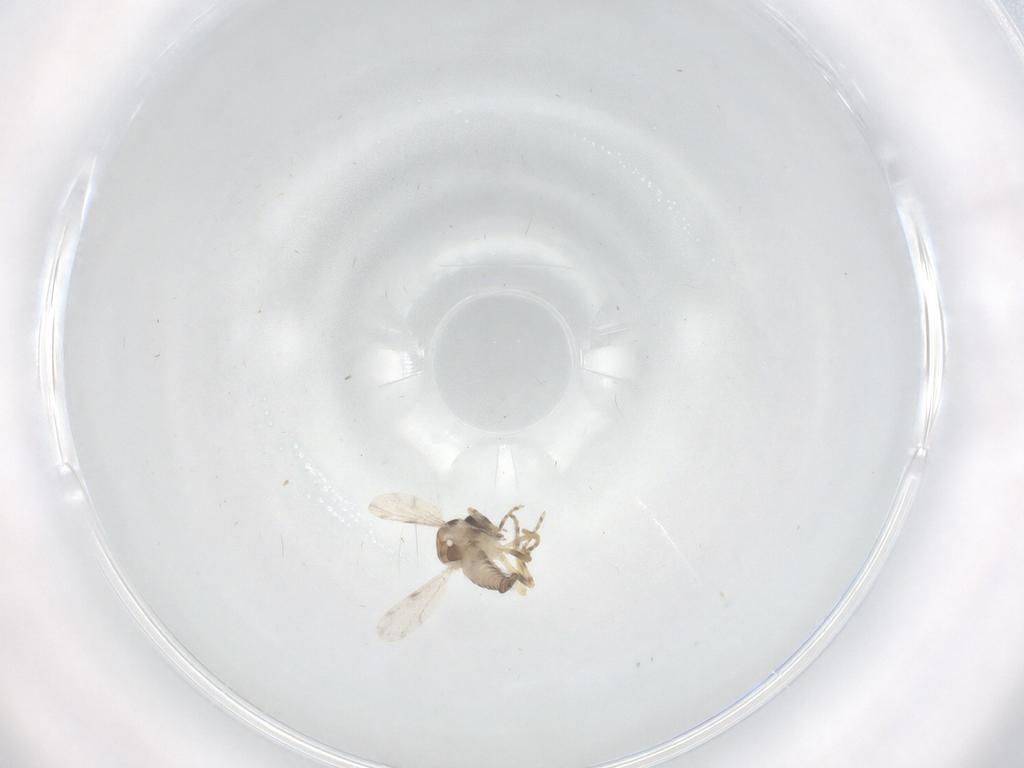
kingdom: Animalia
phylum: Arthropoda
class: Insecta
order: Diptera
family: Ceratopogonidae
